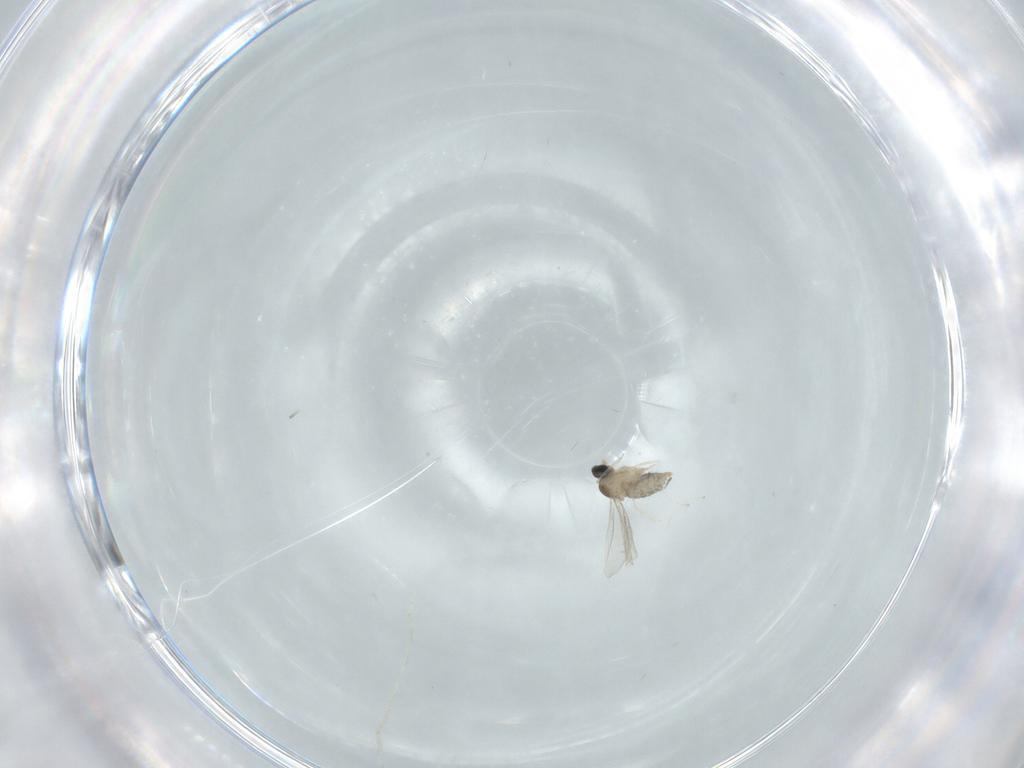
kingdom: Animalia
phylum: Arthropoda
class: Insecta
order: Diptera
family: Cecidomyiidae
